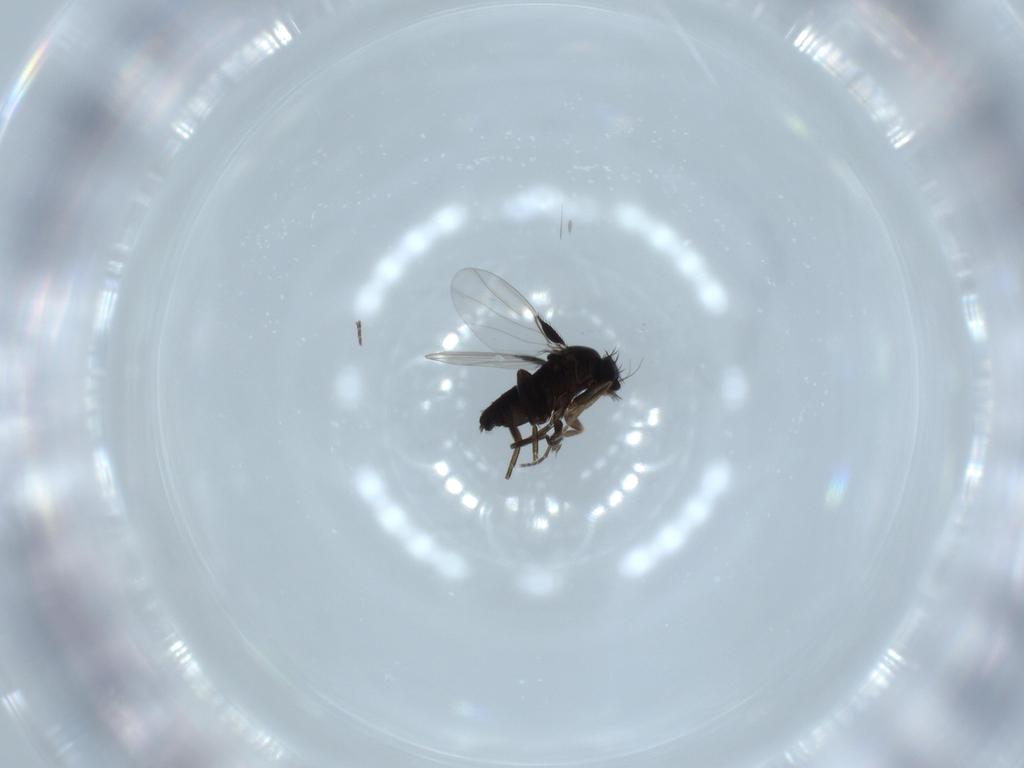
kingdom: Animalia
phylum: Arthropoda
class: Insecta
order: Diptera
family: Phoridae
